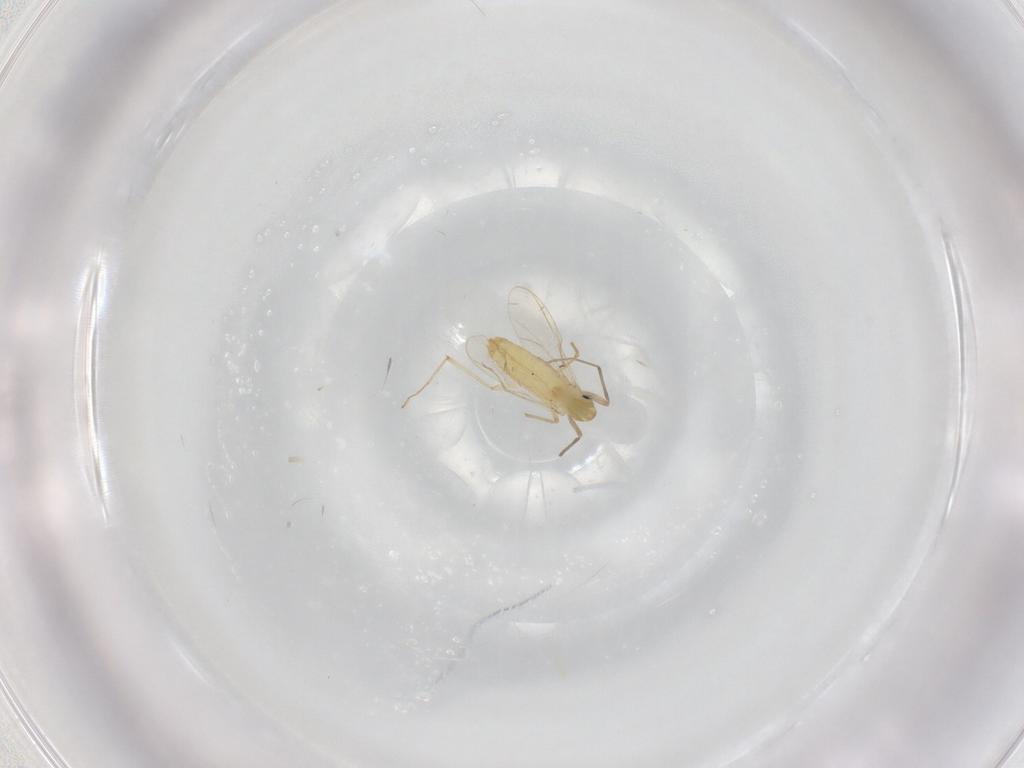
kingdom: Animalia
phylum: Arthropoda
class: Insecta
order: Diptera
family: Chironomidae
